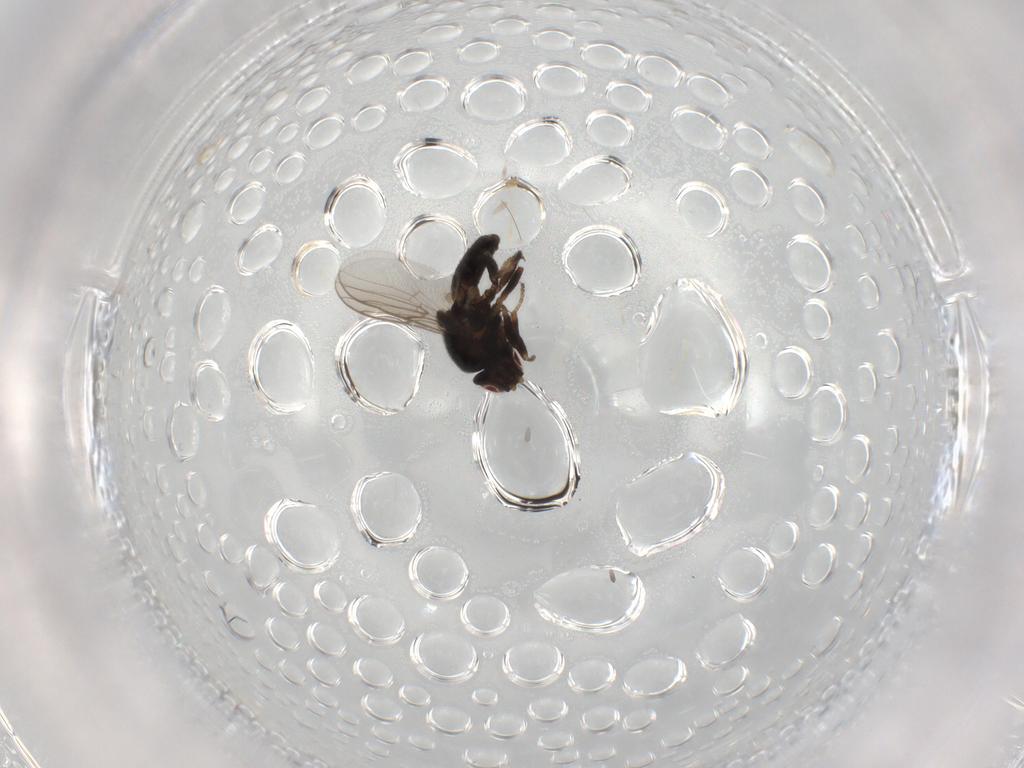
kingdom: Animalia
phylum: Arthropoda
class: Insecta
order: Diptera
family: Chloropidae
